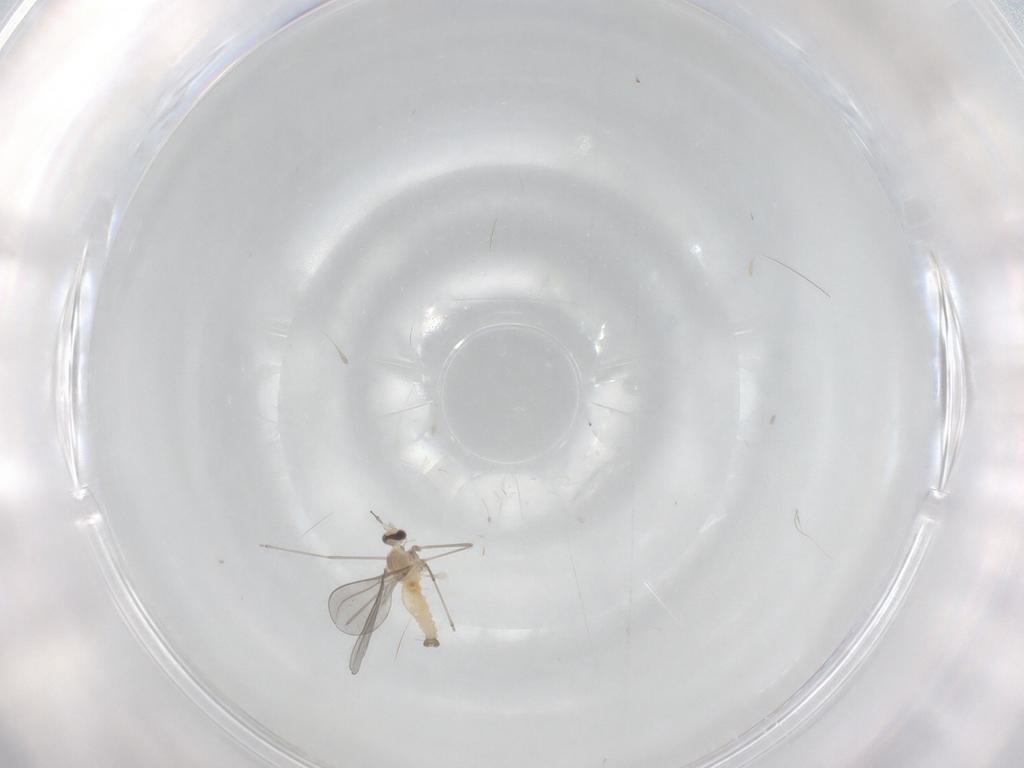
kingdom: Animalia
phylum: Arthropoda
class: Insecta
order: Diptera
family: Cecidomyiidae
